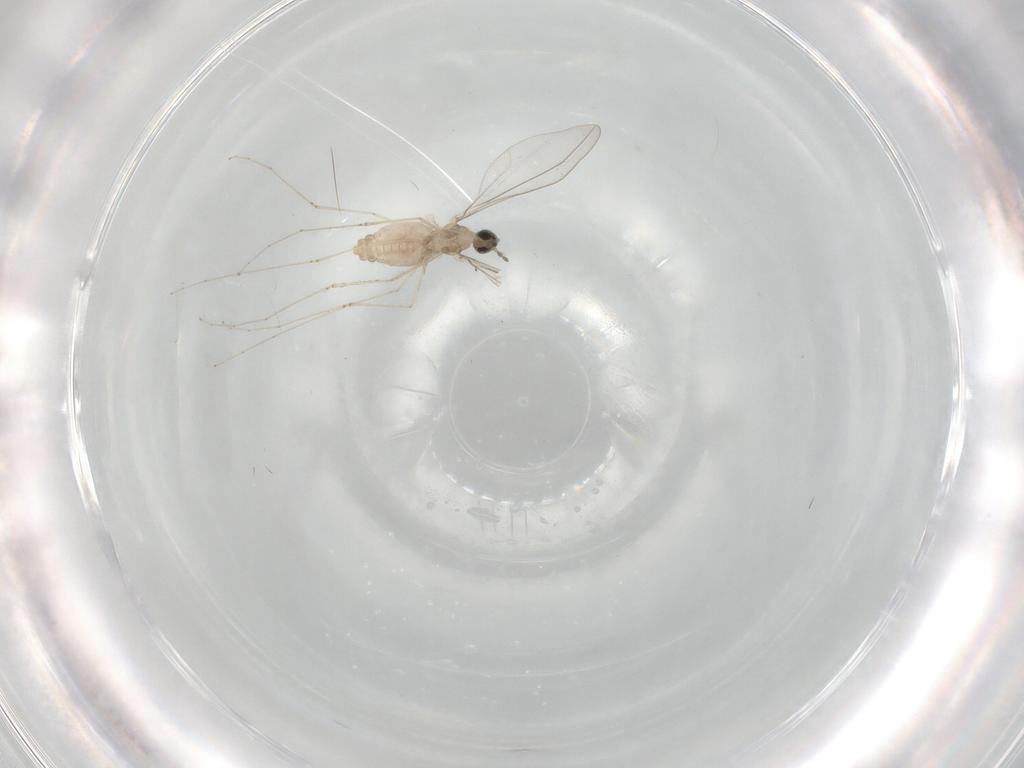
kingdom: Animalia
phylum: Arthropoda
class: Insecta
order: Diptera
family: Cecidomyiidae
